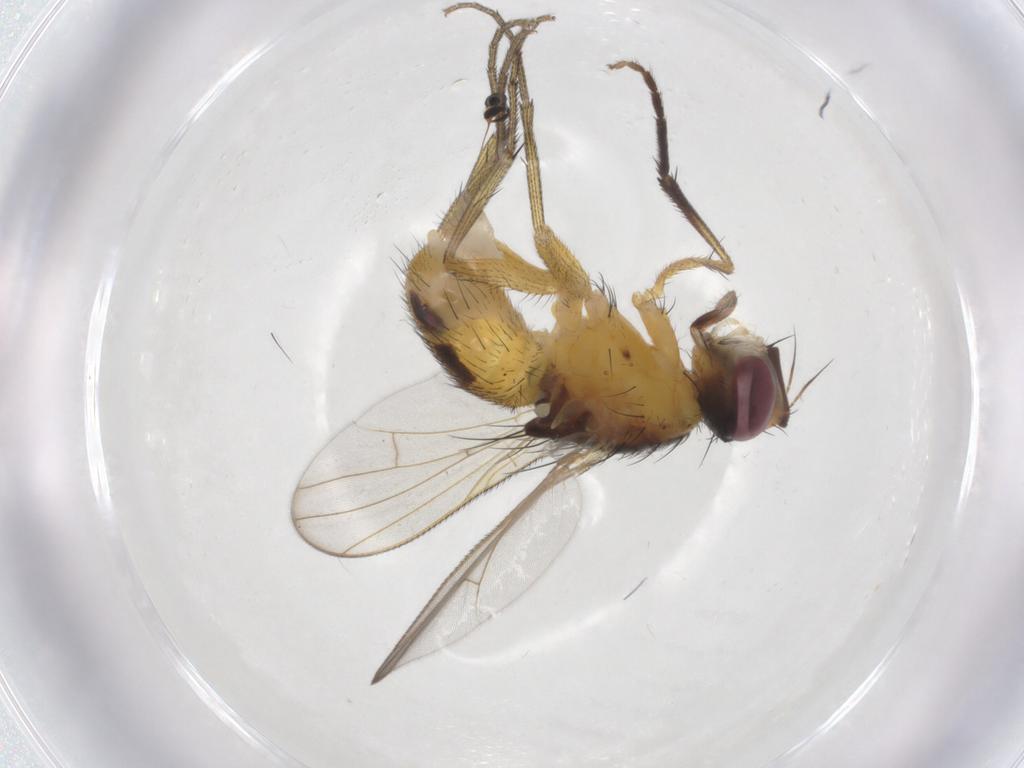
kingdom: Animalia
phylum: Arthropoda
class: Insecta
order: Diptera
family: Muscidae
